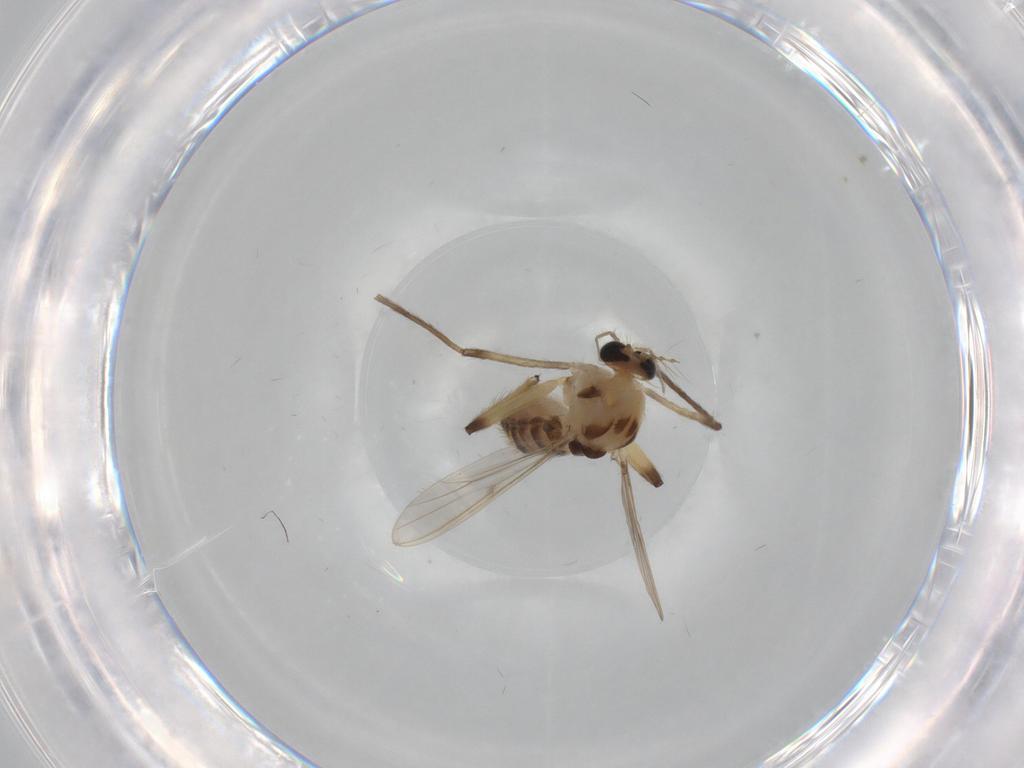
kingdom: Animalia
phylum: Arthropoda
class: Insecta
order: Diptera
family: Chironomidae
